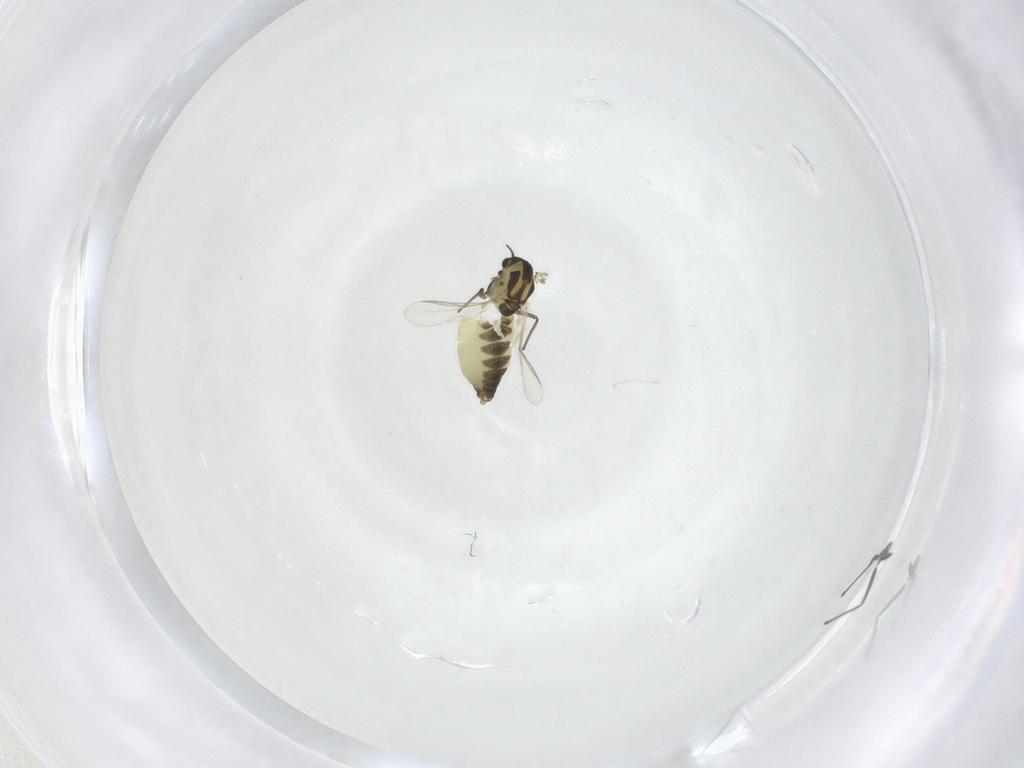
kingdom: Animalia
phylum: Arthropoda
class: Insecta
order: Diptera
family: Chironomidae
